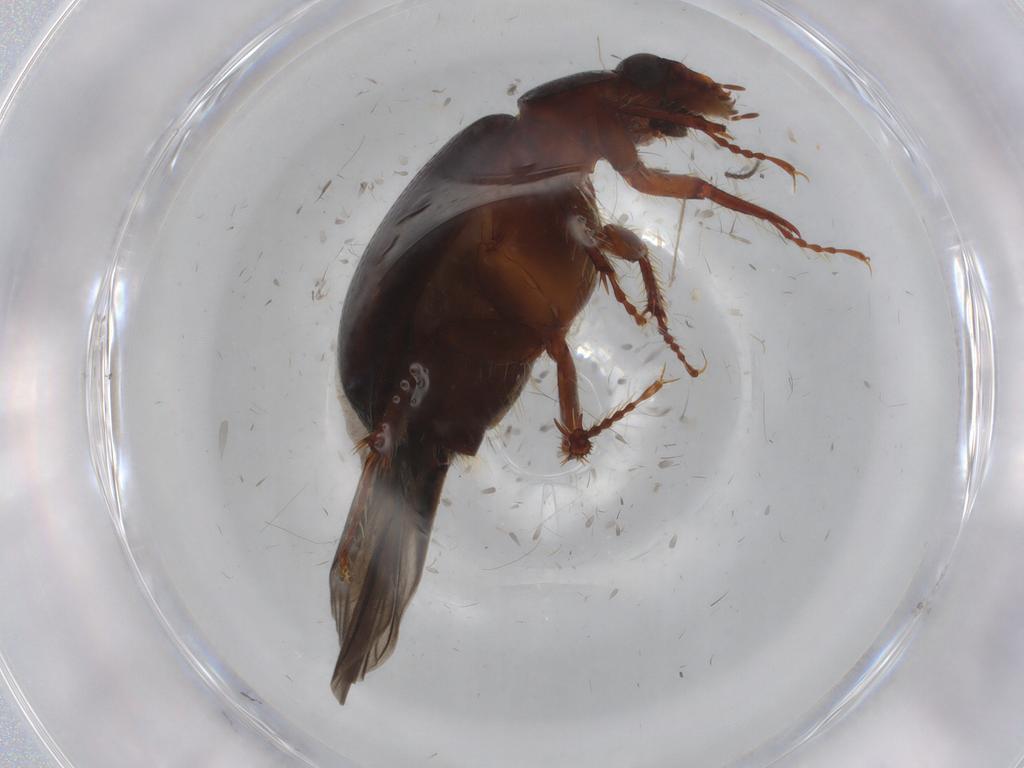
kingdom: Animalia
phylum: Arthropoda
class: Insecta
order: Coleoptera
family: Hybosoridae
